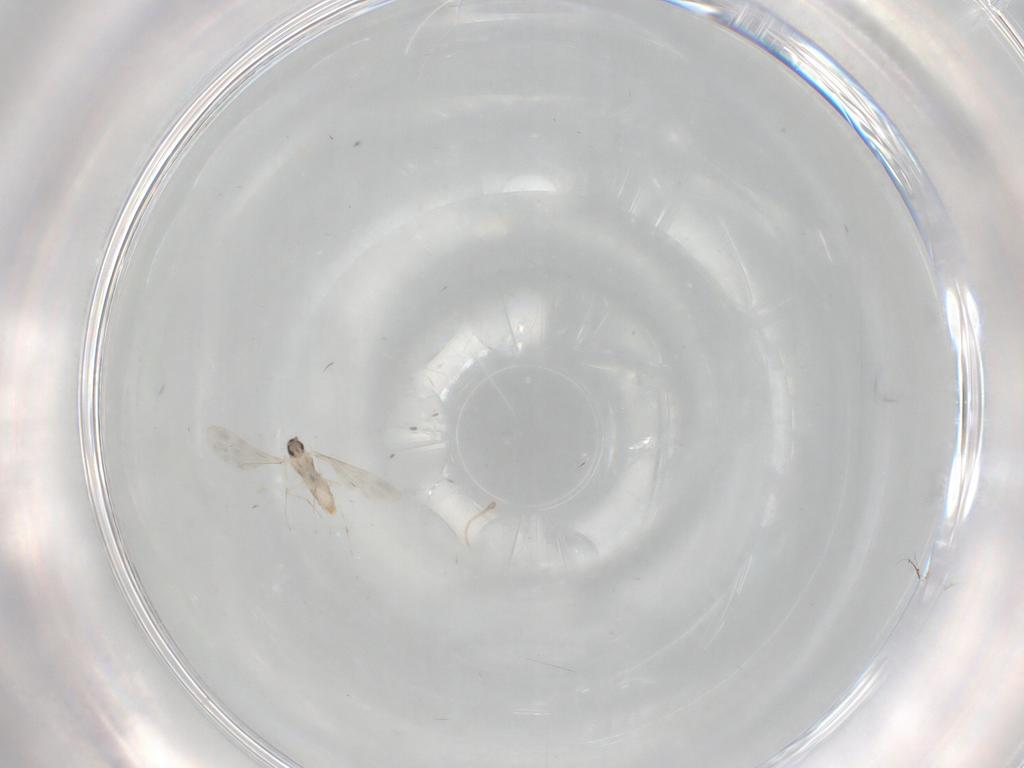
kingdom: Animalia
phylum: Arthropoda
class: Insecta
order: Diptera
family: Cecidomyiidae
